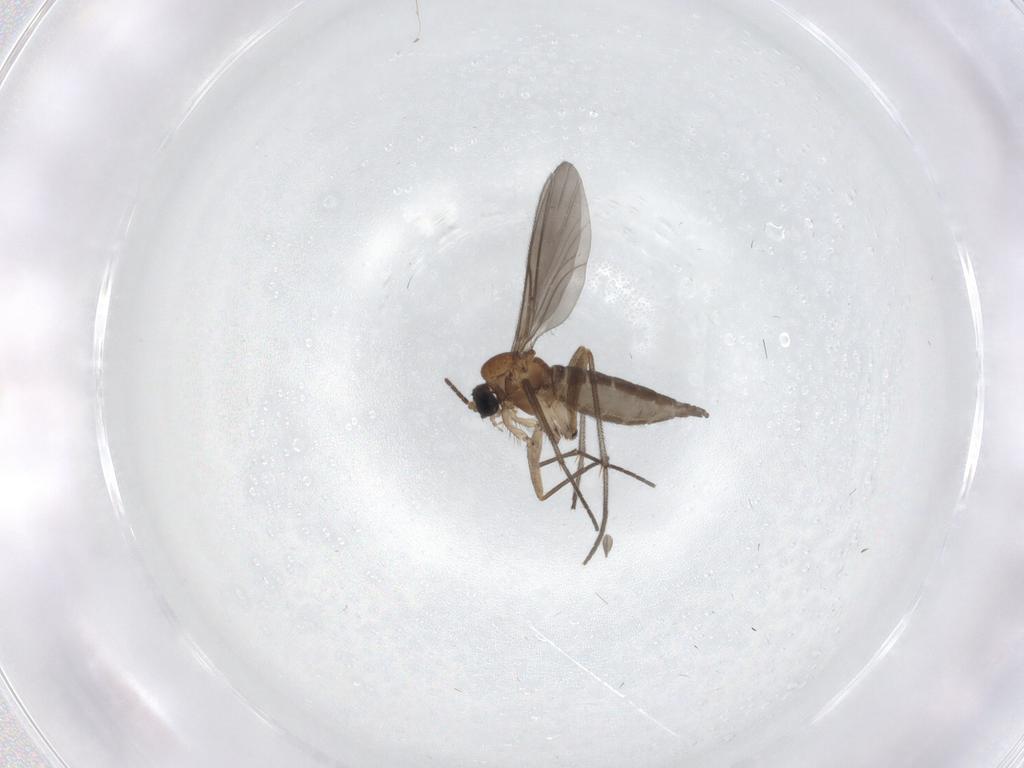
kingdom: Animalia
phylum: Arthropoda
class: Insecta
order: Diptera
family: Sciaridae
